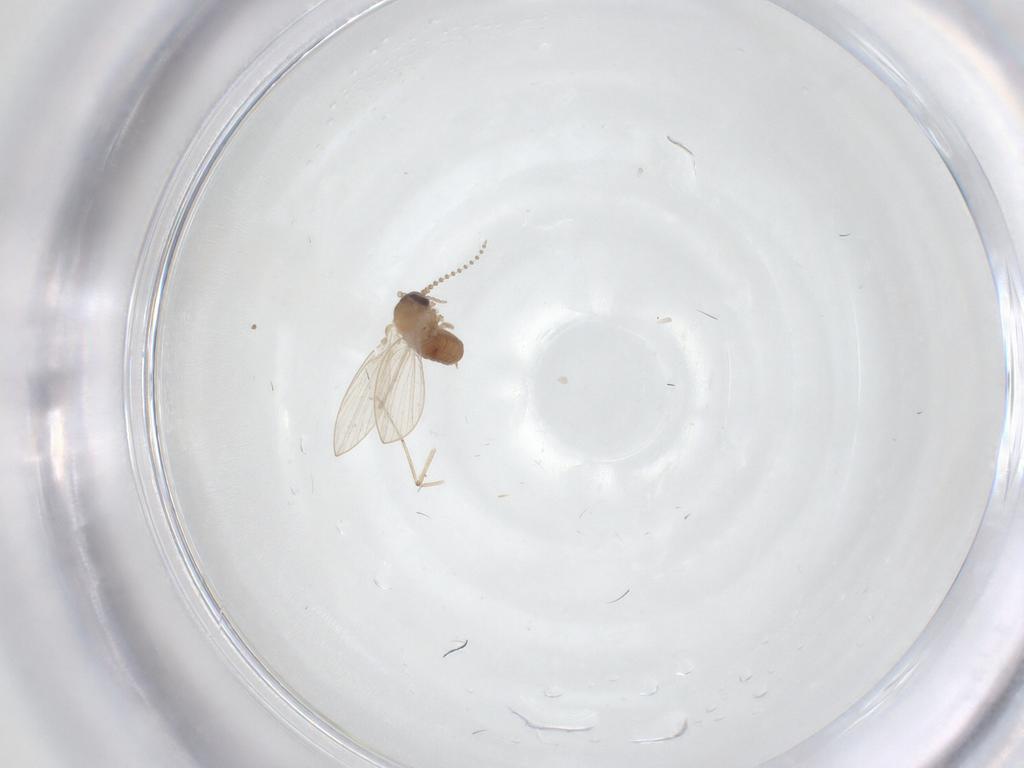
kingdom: Animalia
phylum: Arthropoda
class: Insecta
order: Diptera
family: Psychodidae
